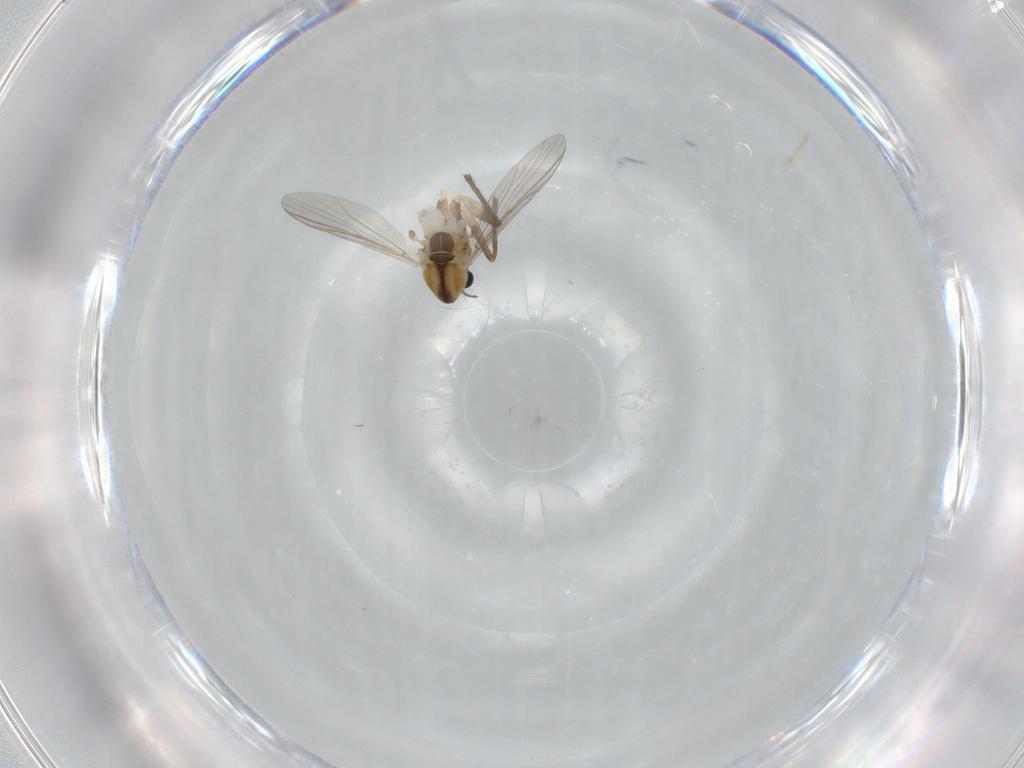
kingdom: Animalia
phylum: Arthropoda
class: Insecta
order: Diptera
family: Chironomidae
